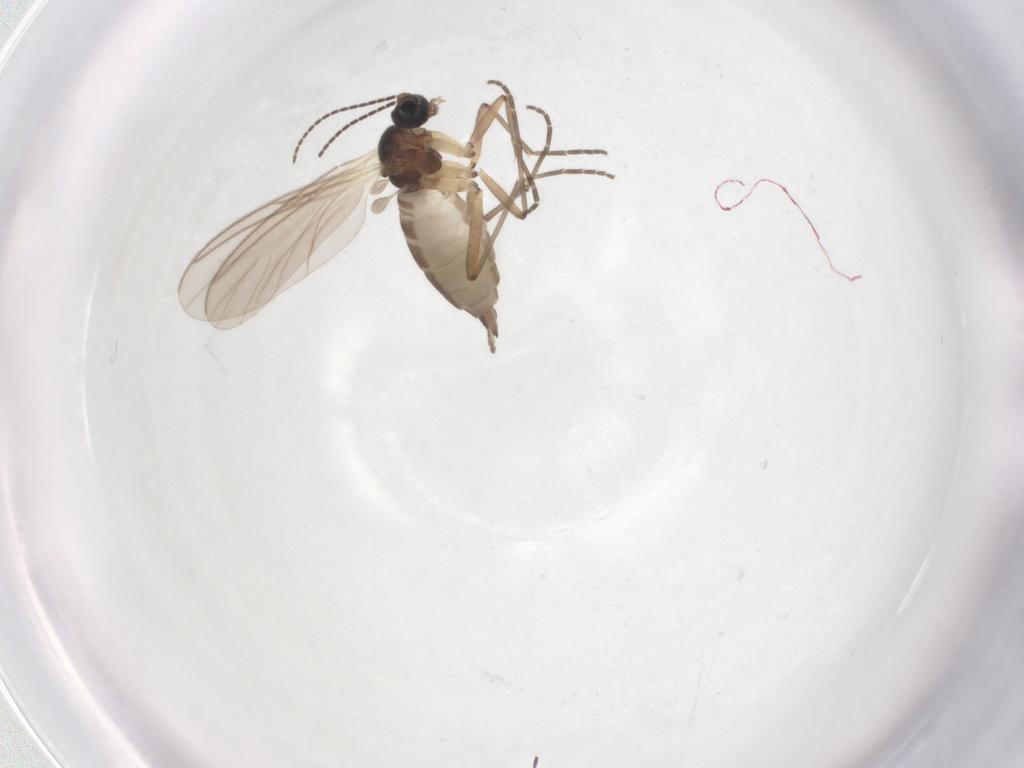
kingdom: Animalia
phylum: Arthropoda
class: Insecta
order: Diptera
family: Sciaridae
